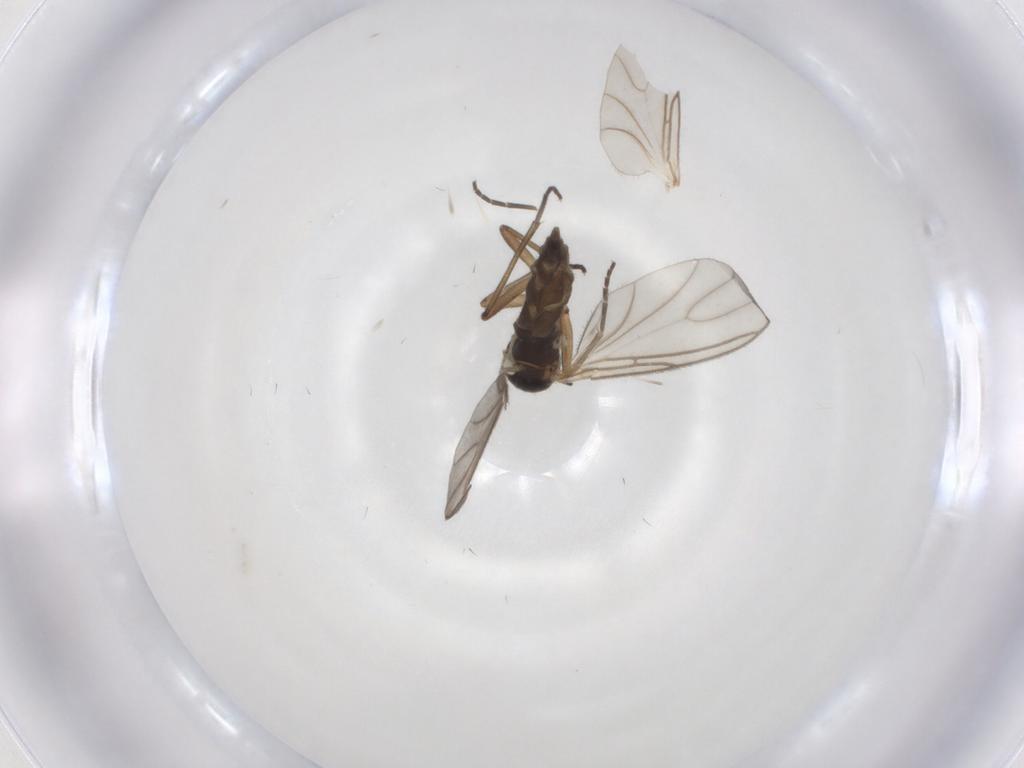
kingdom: Animalia
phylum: Arthropoda
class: Insecta
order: Diptera
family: Chironomidae
